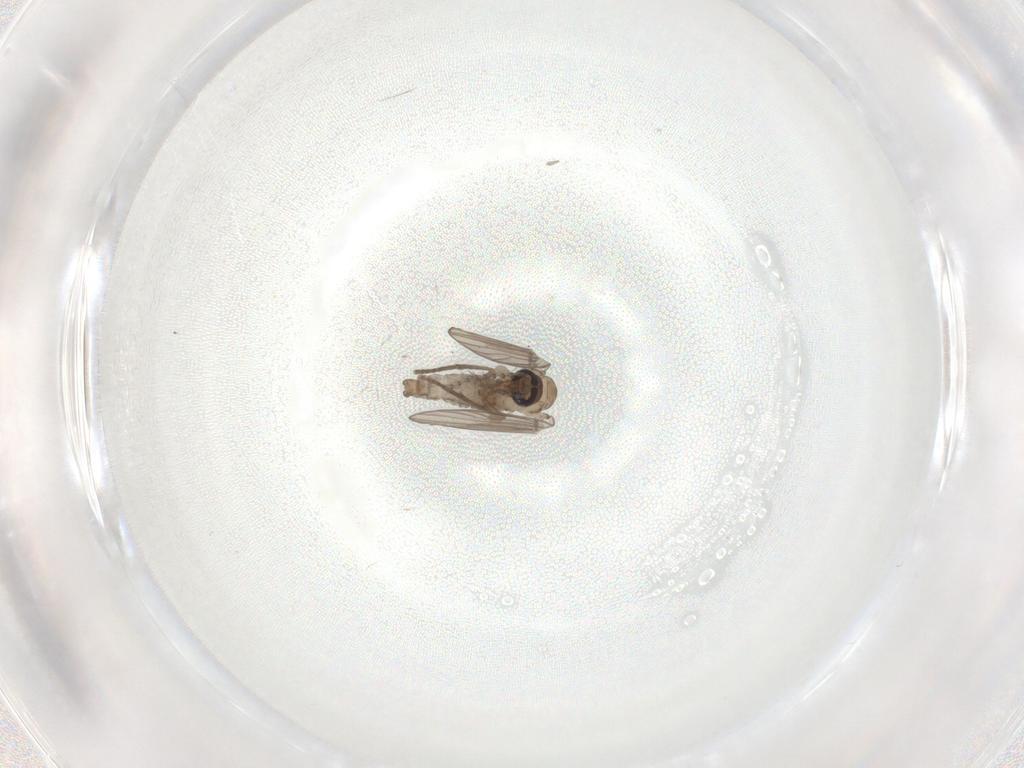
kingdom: Animalia
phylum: Arthropoda
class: Insecta
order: Diptera
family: Psychodidae
